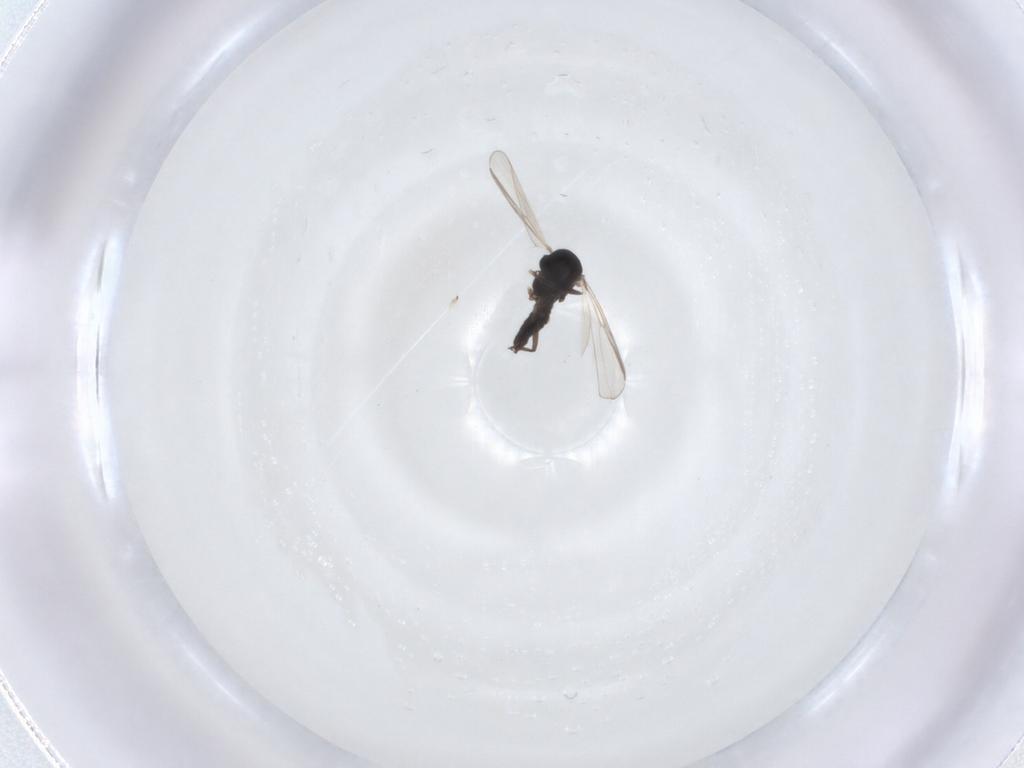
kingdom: Animalia
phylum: Arthropoda
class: Insecta
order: Diptera
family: Chironomidae
